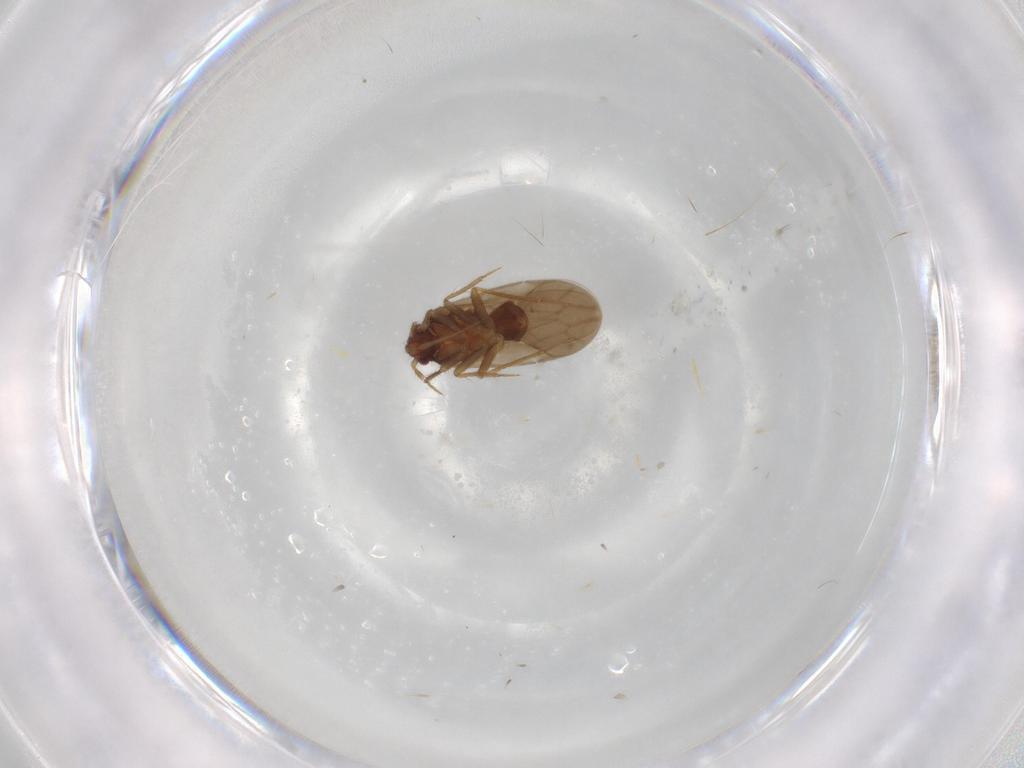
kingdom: Animalia
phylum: Arthropoda
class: Insecta
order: Hemiptera
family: Ceratocombidae
